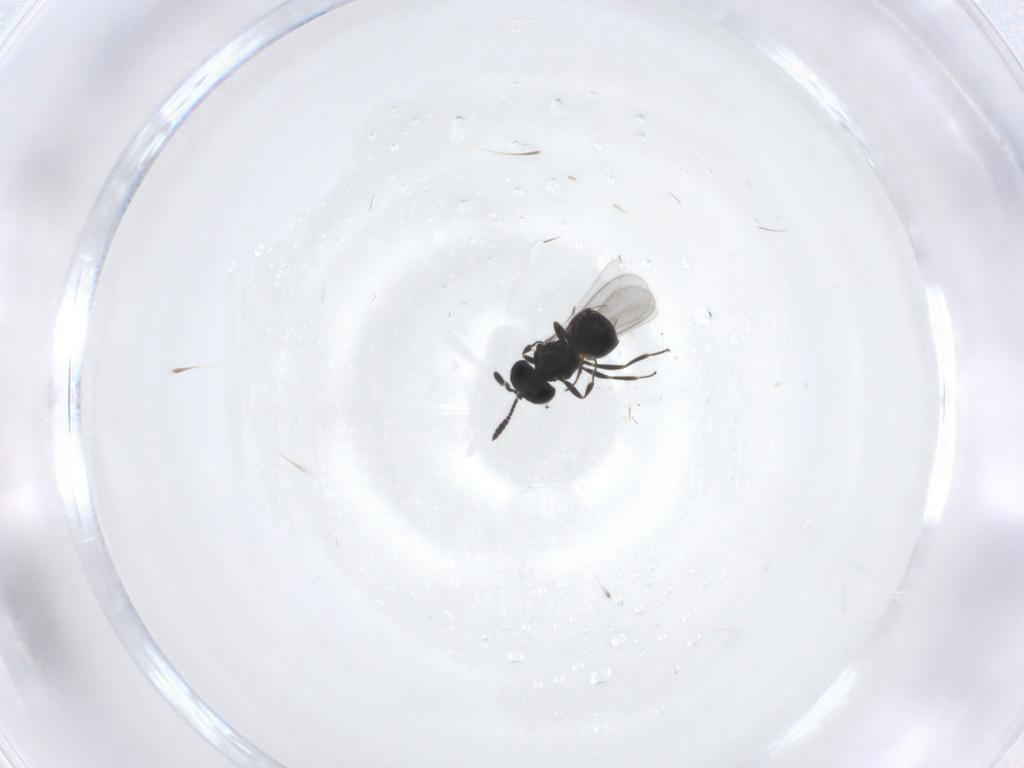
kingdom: Animalia
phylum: Arthropoda
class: Insecta
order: Hymenoptera
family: Scelionidae
